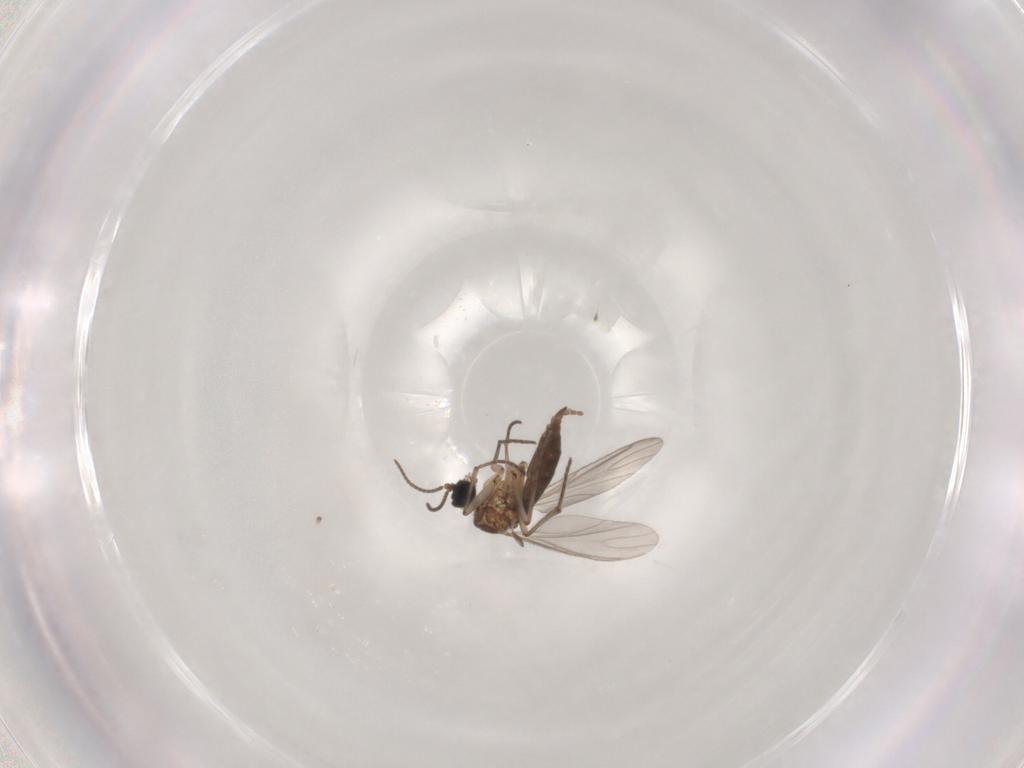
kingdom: Animalia
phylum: Arthropoda
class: Insecta
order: Diptera
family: Sciaridae
